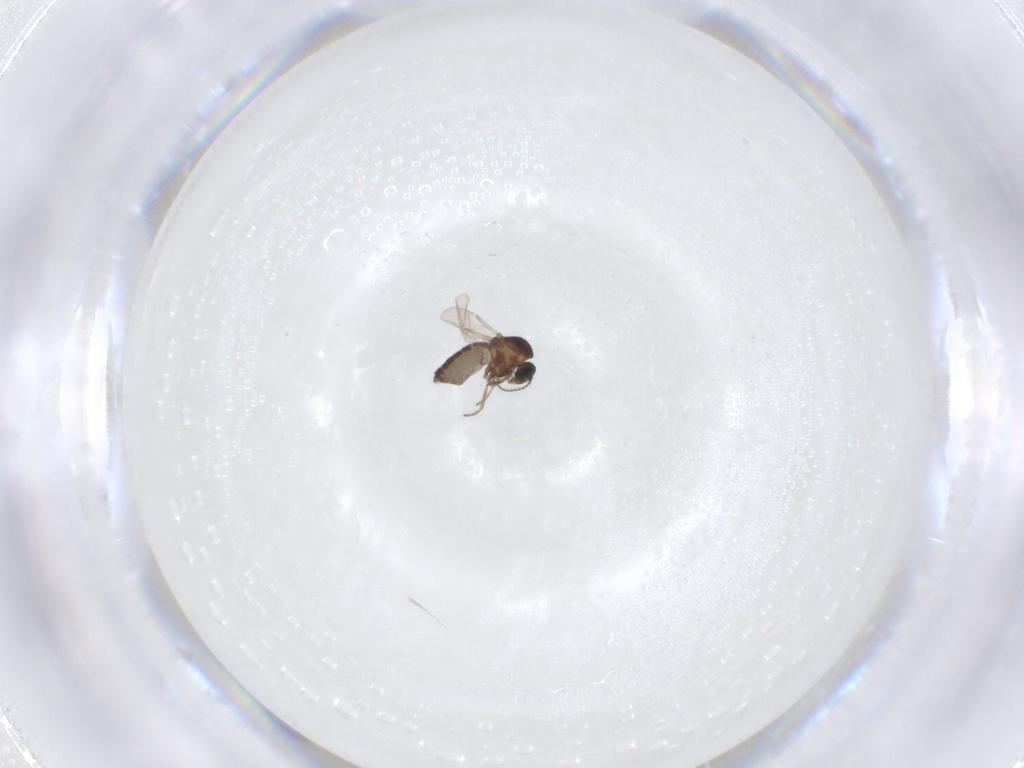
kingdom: Animalia
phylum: Arthropoda
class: Insecta
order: Diptera
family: Ceratopogonidae
